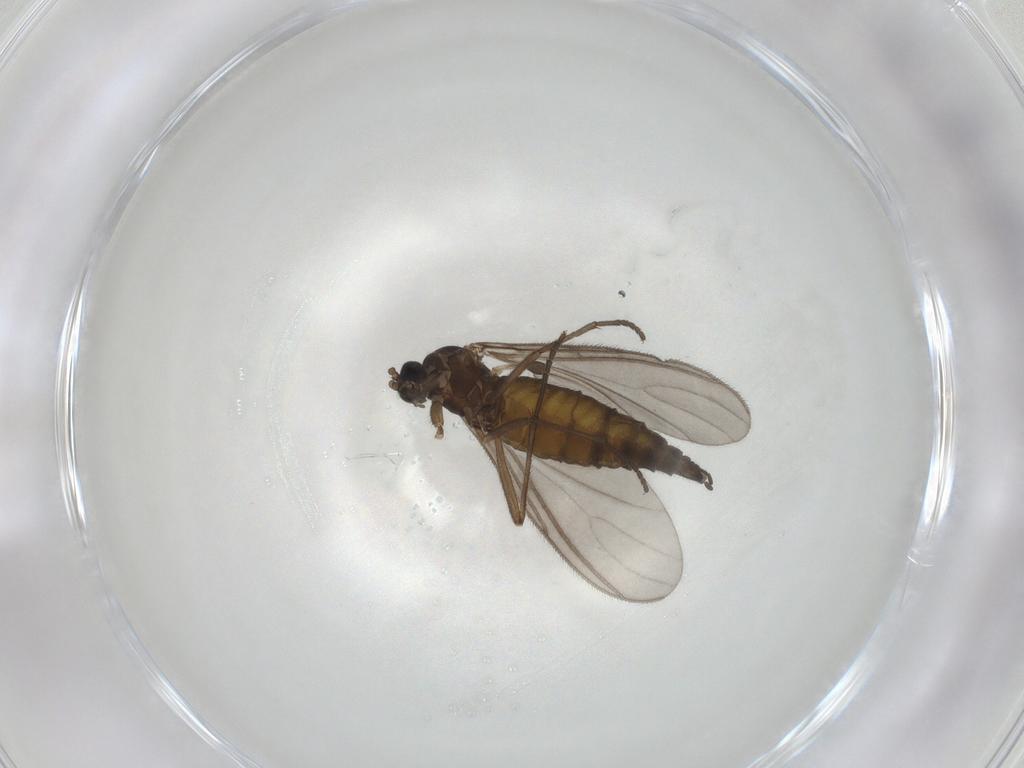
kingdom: Animalia
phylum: Arthropoda
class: Insecta
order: Diptera
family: Sciaridae
